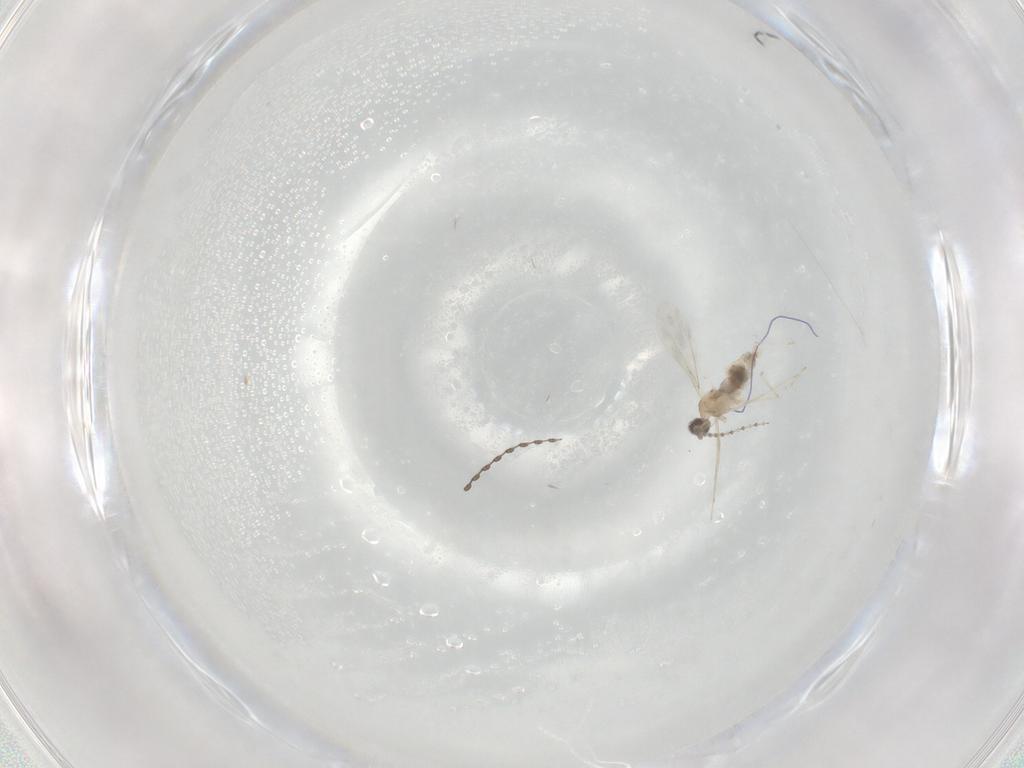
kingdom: Animalia
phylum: Arthropoda
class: Insecta
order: Diptera
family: Cecidomyiidae
